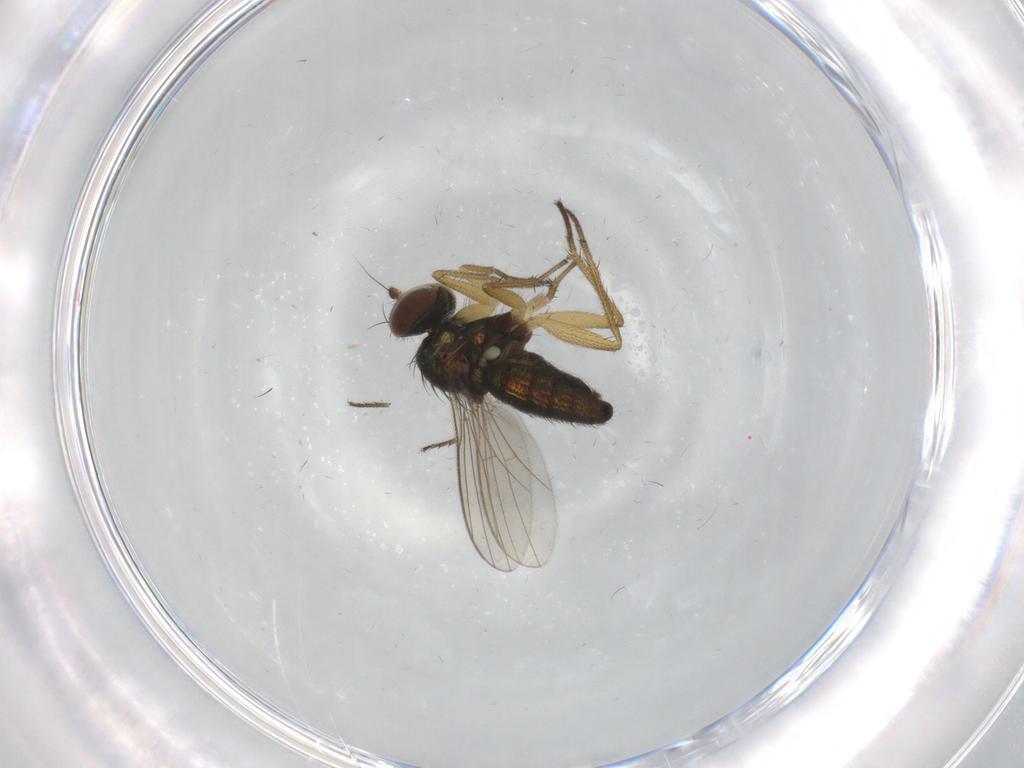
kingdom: Animalia
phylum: Arthropoda
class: Insecta
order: Diptera
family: Dolichopodidae
